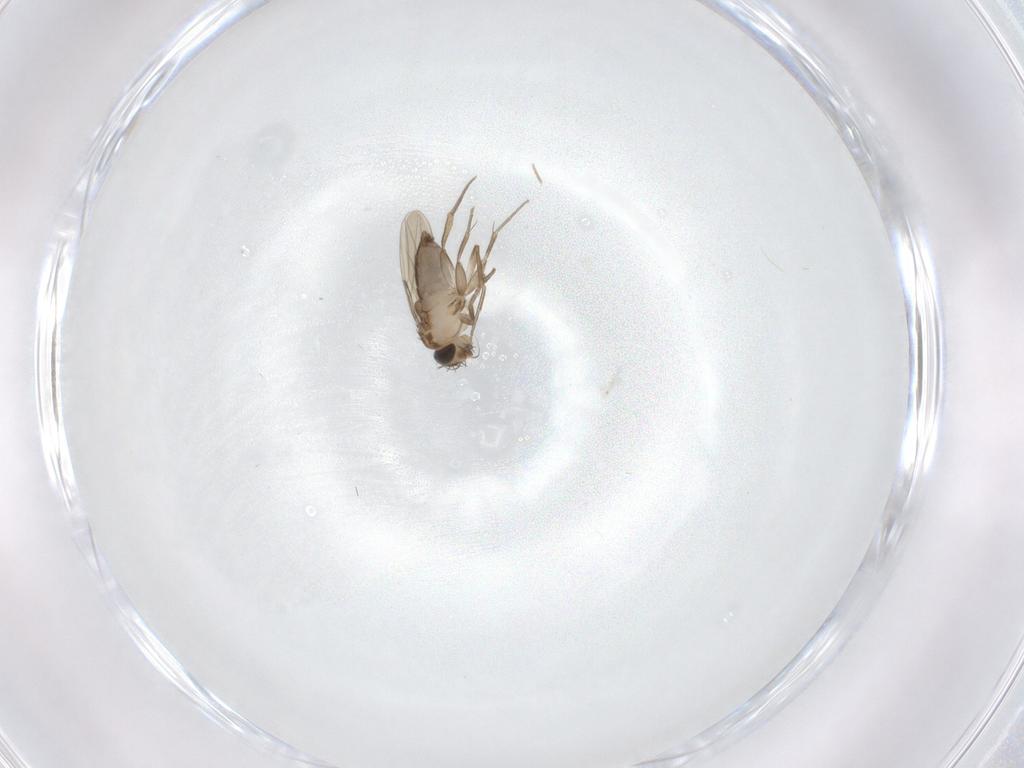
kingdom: Animalia
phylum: Arthropoda
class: Insecta
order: Diptera
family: Phoridae
